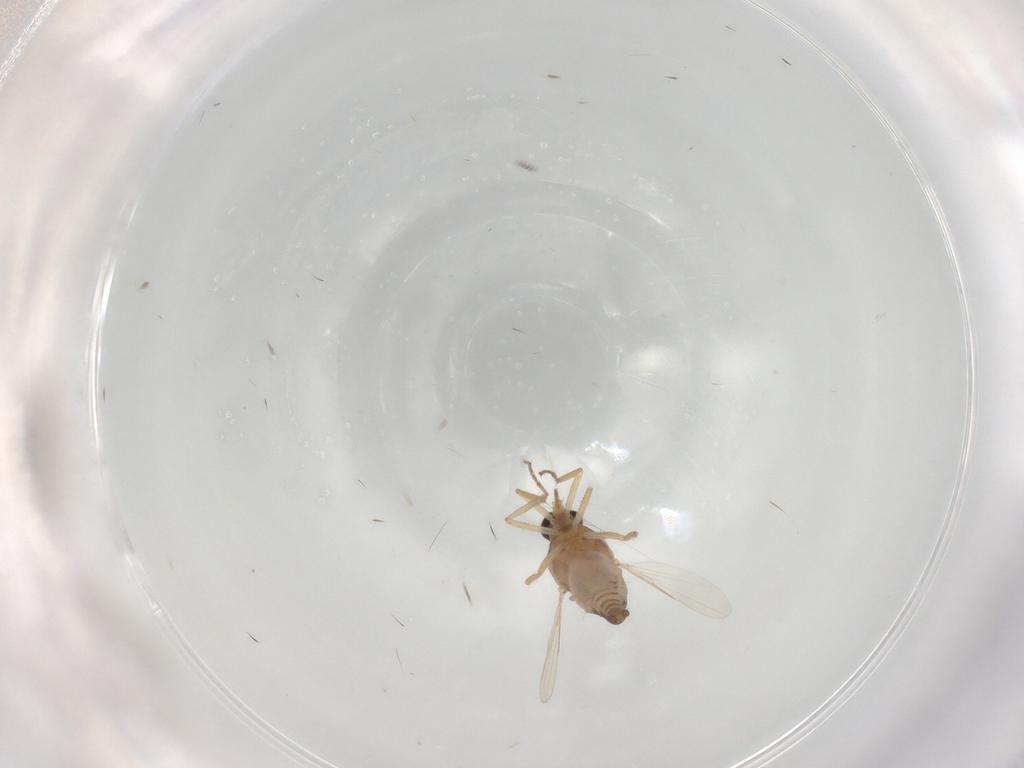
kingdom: Animalia
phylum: Arthropoda
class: Insecta
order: Diptera
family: Ceratopogonidae
